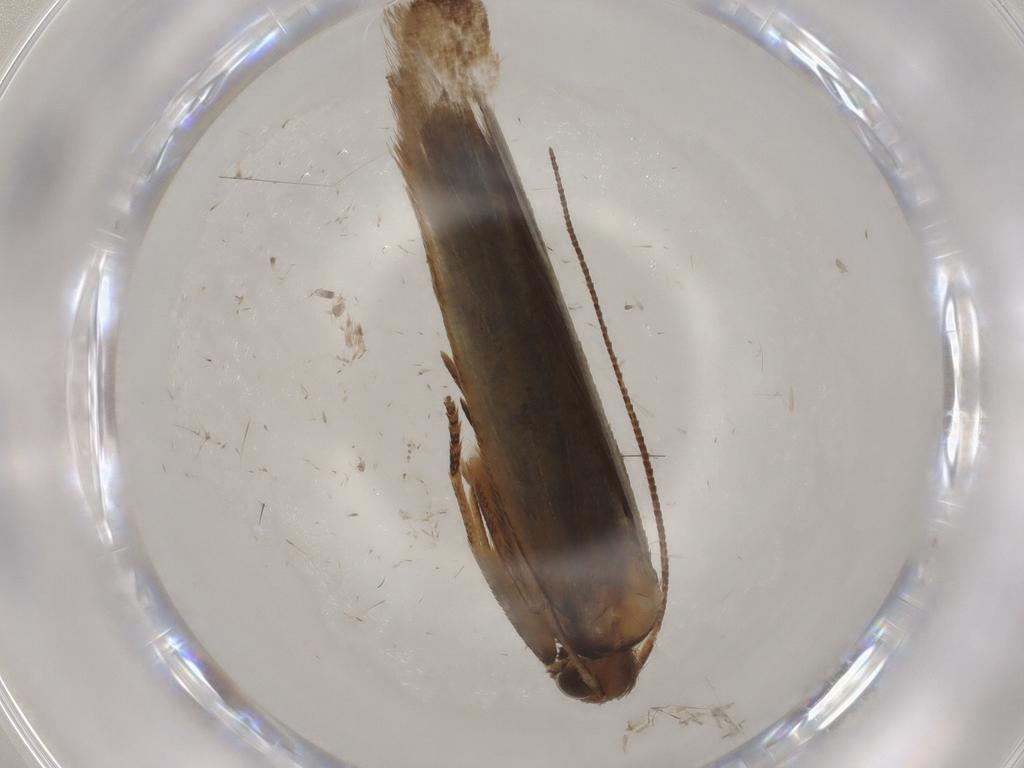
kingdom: Animalia
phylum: Arthropoda
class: Insecta
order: Lepidoptera
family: Gelechiidae
